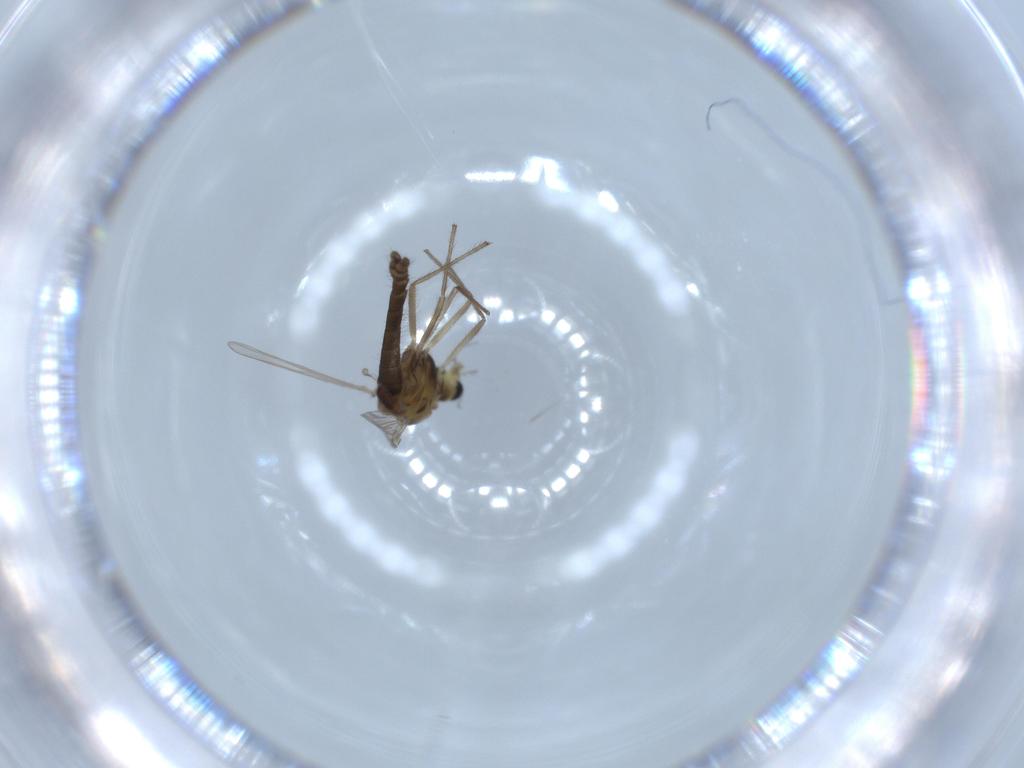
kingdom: Animalia
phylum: Arthropoda
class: Insecta
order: Diptera
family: Chironomidae
